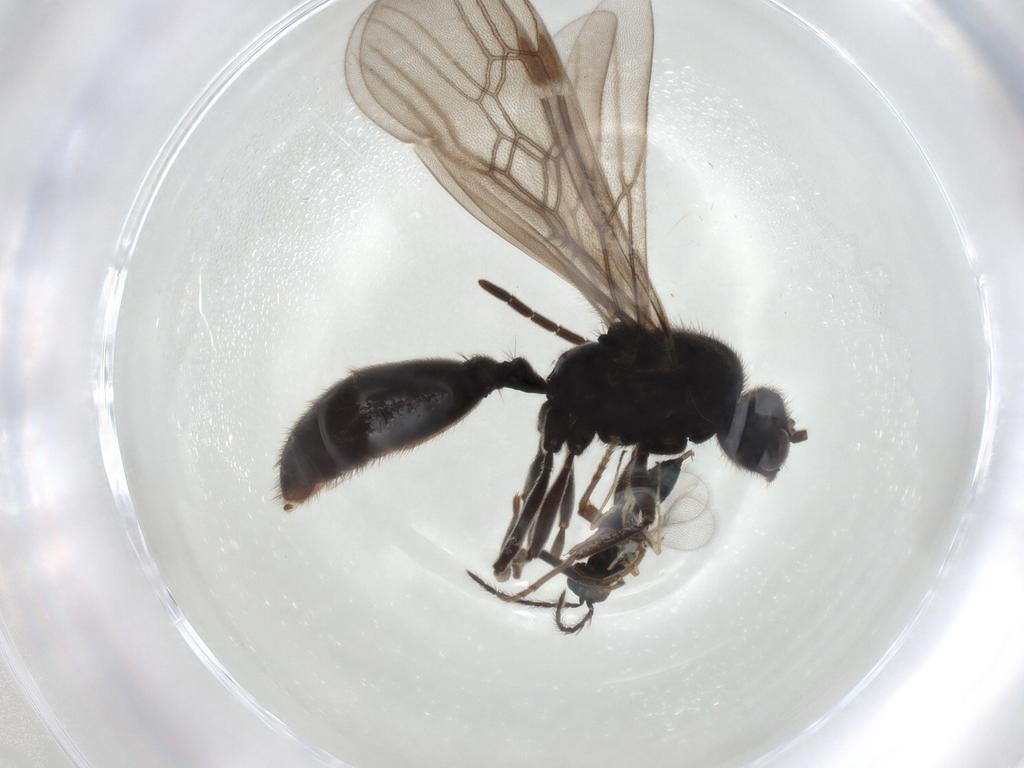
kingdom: Animalia
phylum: Arthropoda
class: Insecta
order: Hymenoptera
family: Formicidae
